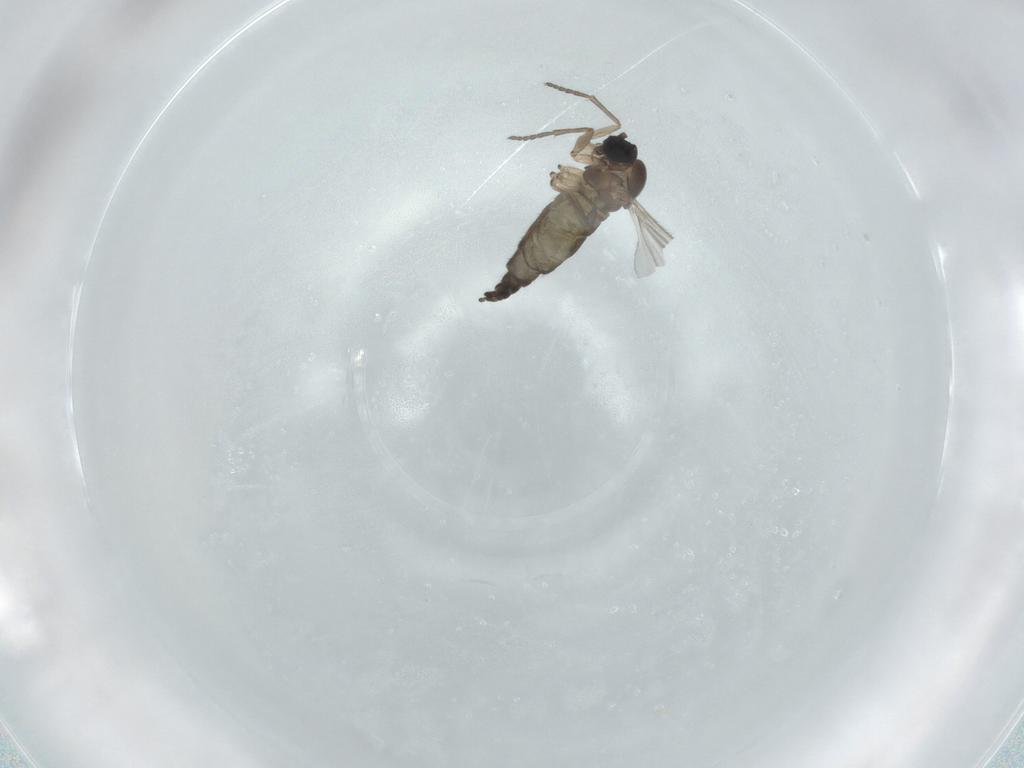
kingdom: Animalia
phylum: Arthropoda
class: Insecta
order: Diptera
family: Sciaridae
